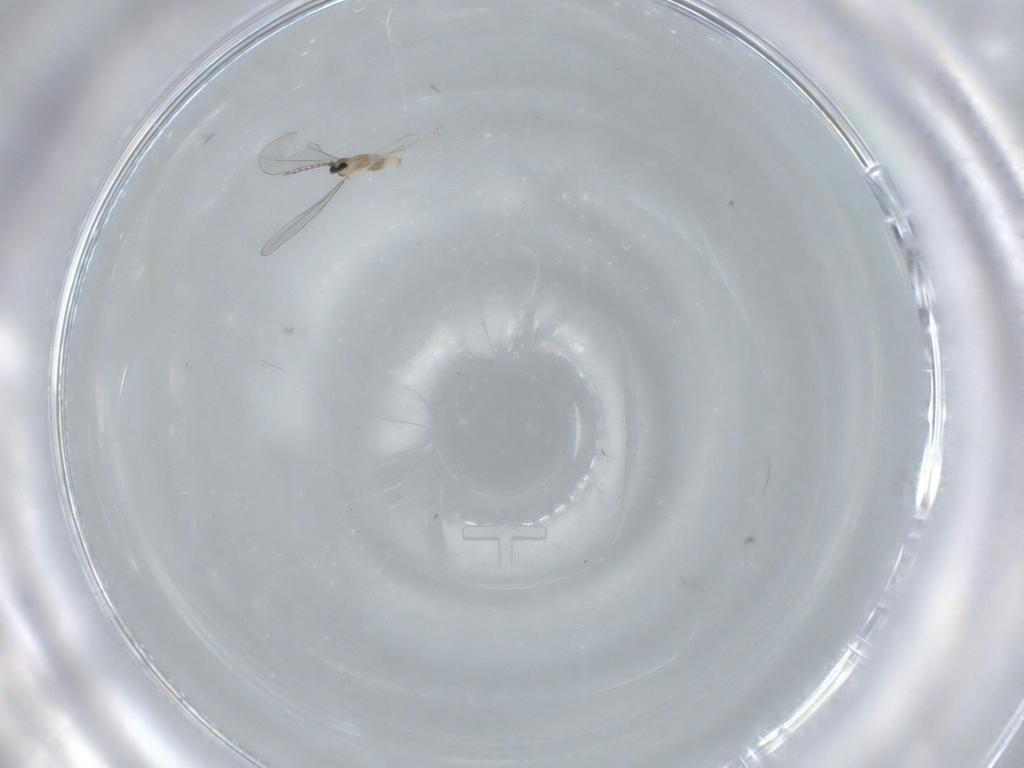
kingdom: Animalia
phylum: Arthropoda
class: Insecta
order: Diptera
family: Cecidomyiidae
